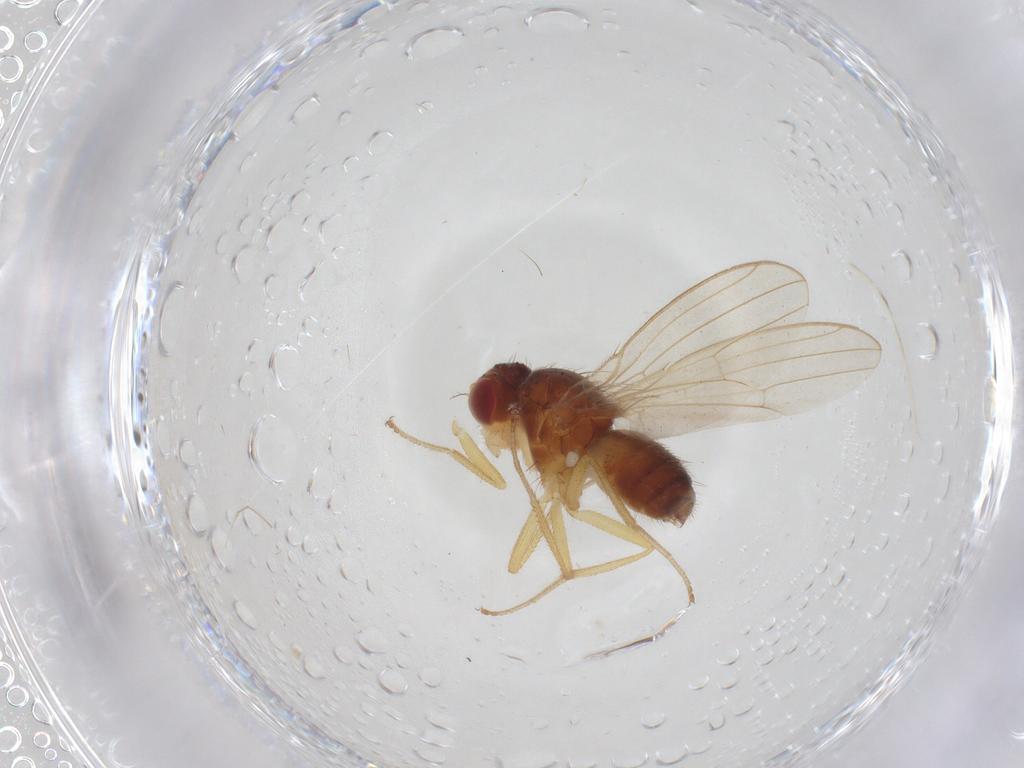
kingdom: Animalia
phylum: Arthropoda
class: Insecta
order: Diptera
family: Drosophilidae
